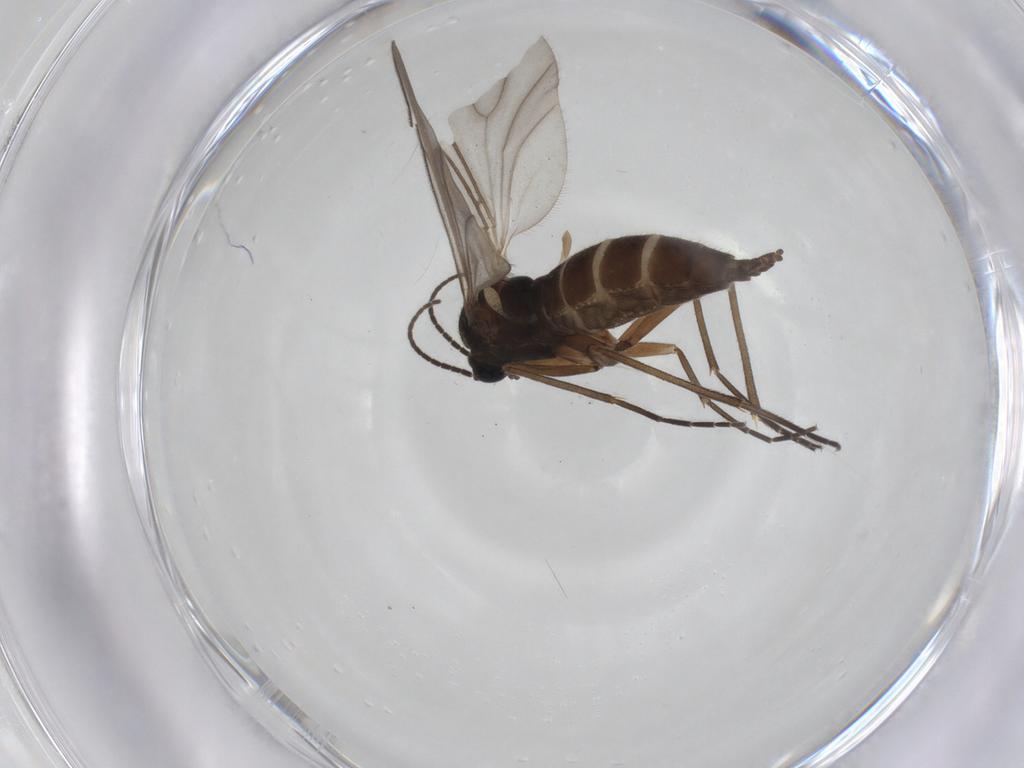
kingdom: Animalia
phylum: Arthropoda
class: Insecta
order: Diptera
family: Sciaridae
